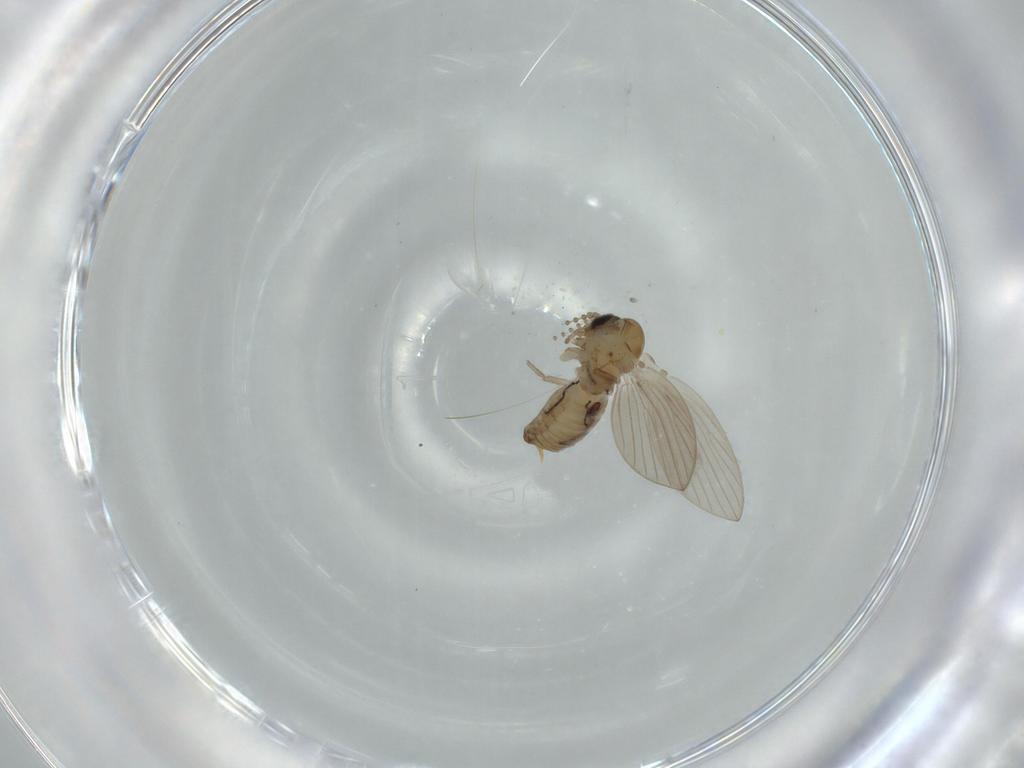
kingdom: Animalia
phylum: Arthropoda
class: Insecta
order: Diptera
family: Psychodidae
